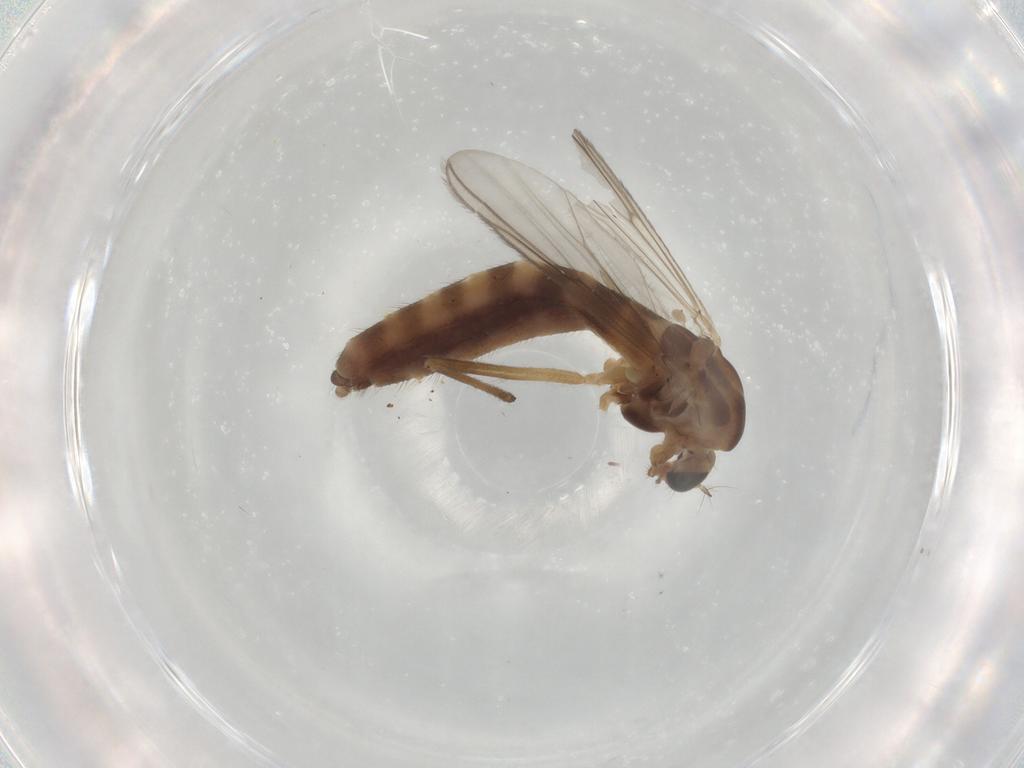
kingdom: Animalia
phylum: Arthropoda
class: Insecta
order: Diptera
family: Chironomidae
